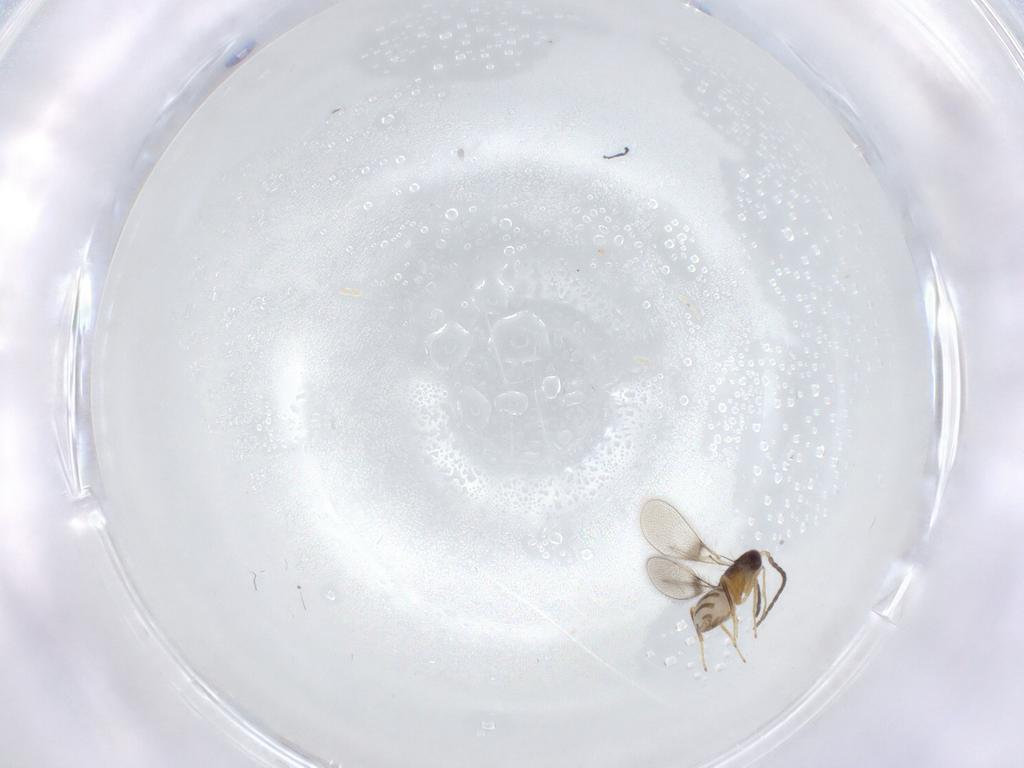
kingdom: Animalia
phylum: Arthropoda
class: Insecta
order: Hymenoptera
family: Mymaridae
